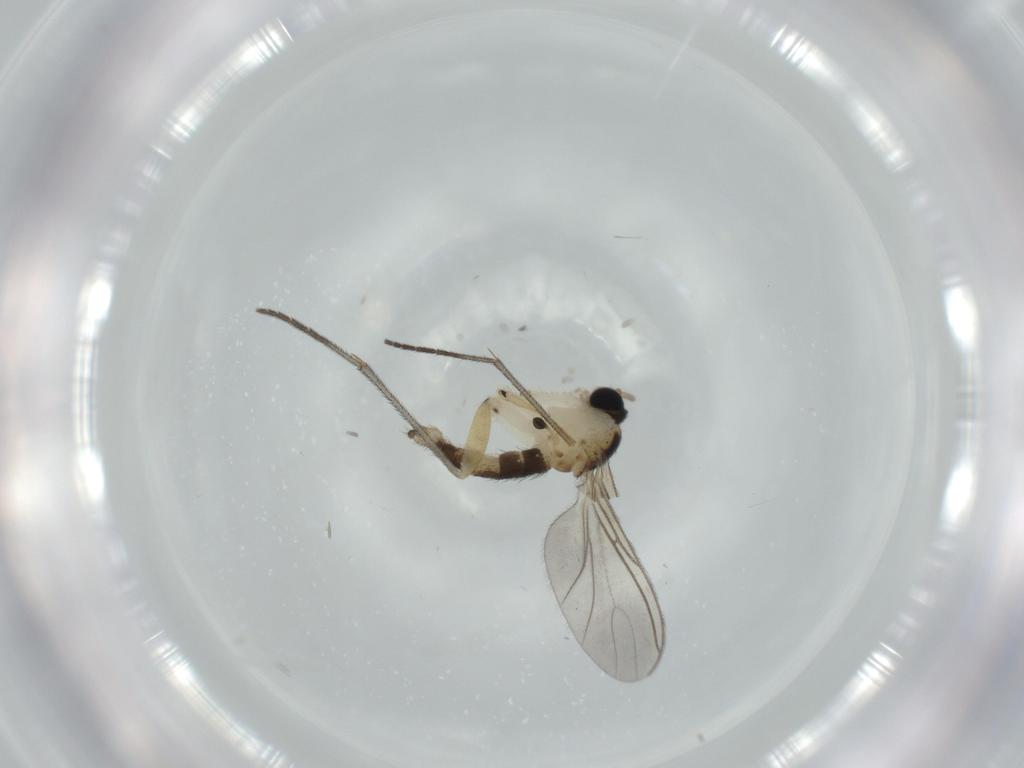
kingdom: Animalia
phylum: Arthropoda
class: Insecta
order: Diptera
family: Sciaridae
